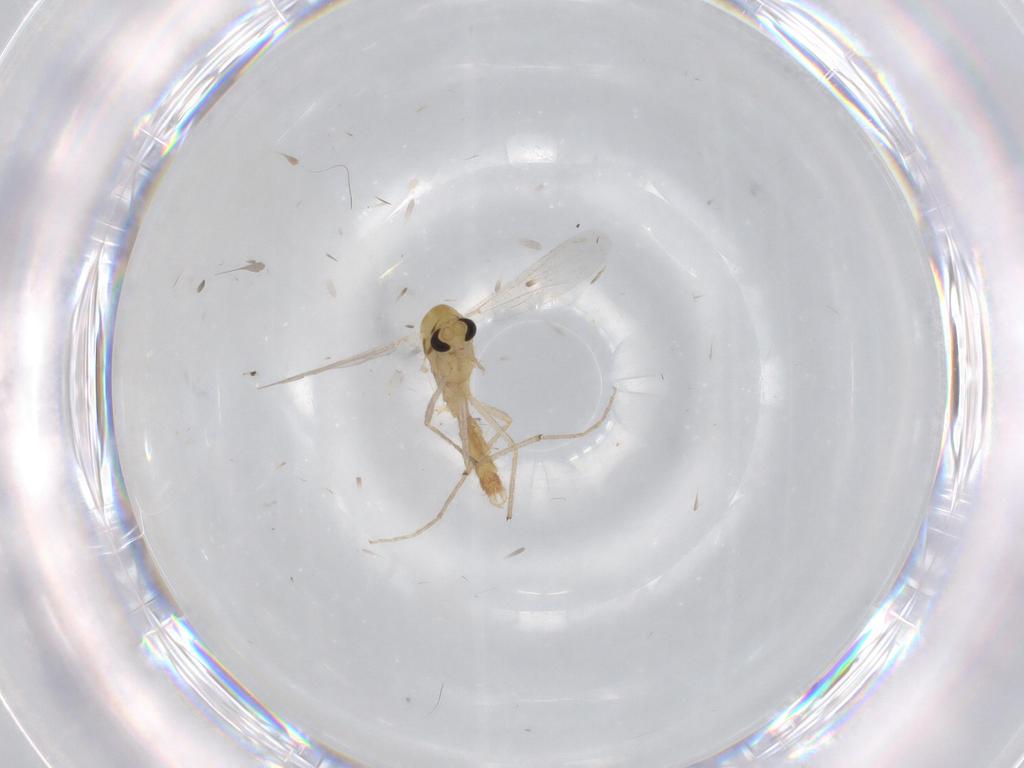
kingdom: Animalia
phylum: Arthropoda
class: Insecta
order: Diptera
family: Chironomidae
